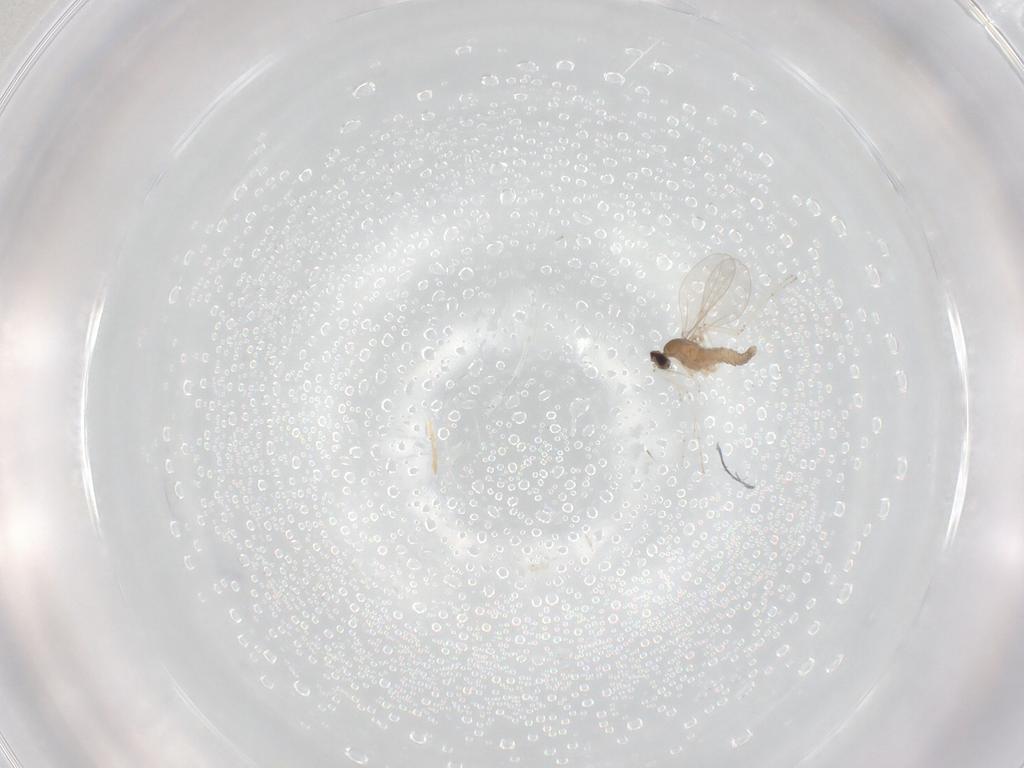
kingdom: Animalia
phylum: Arthropoda
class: Insecta
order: Diptera
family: Cecidomyiidae
